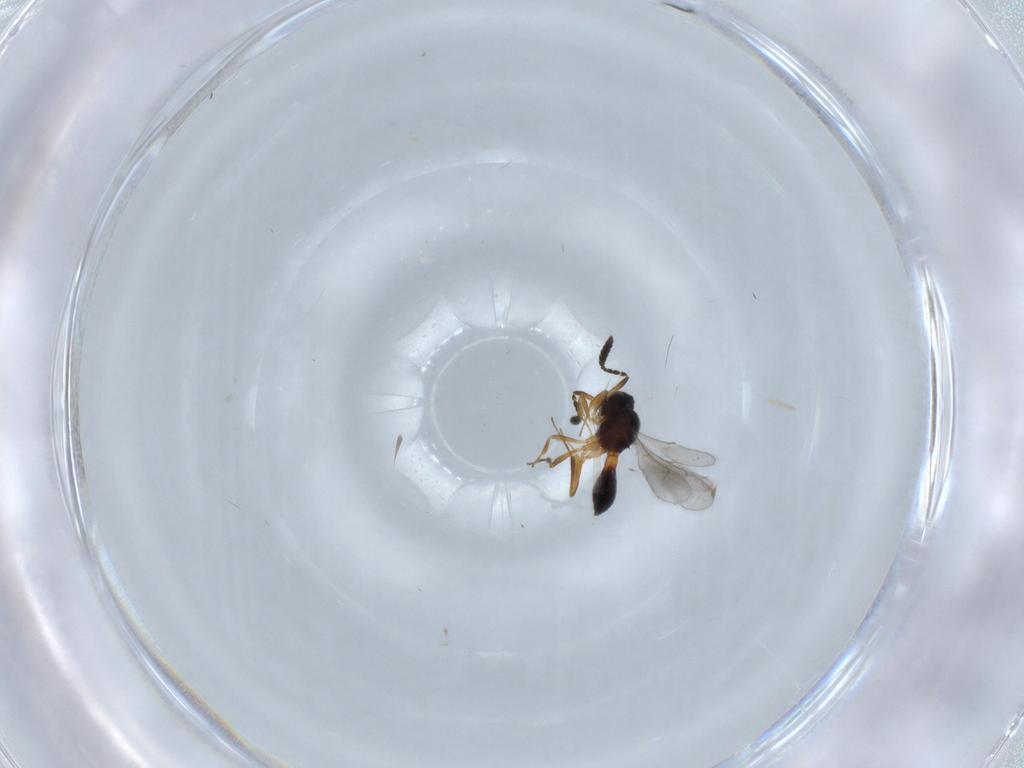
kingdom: Animalia
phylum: Arthropoda
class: Insecta
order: Hymenoptera
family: Scelionidae
